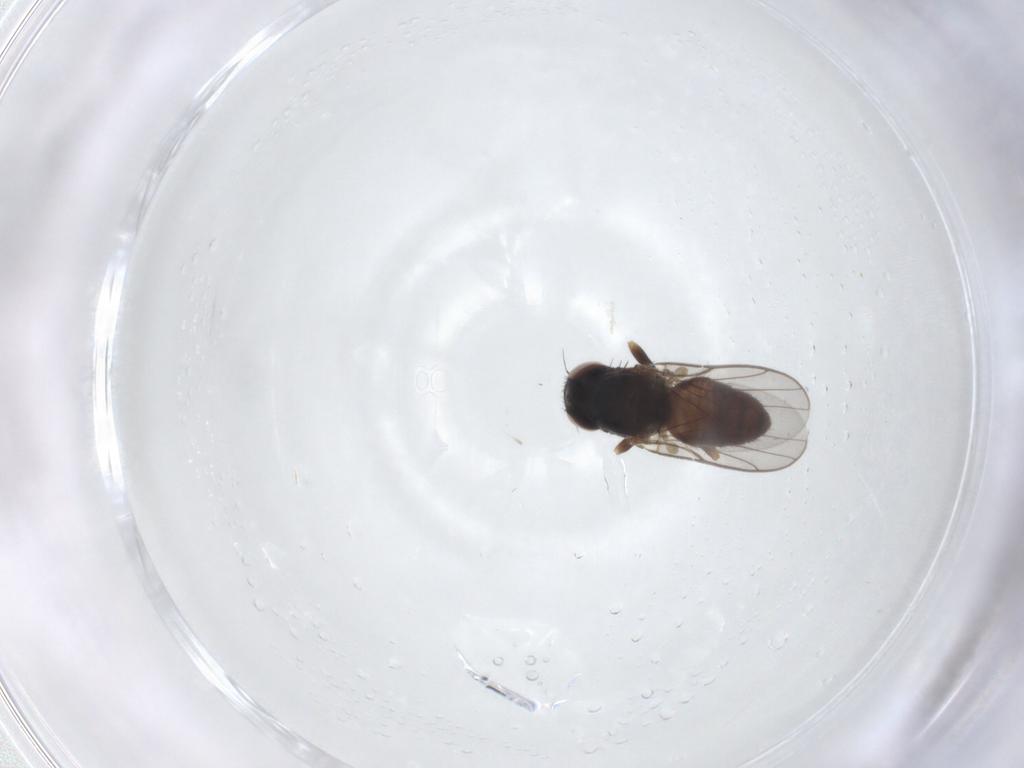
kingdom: Animalia
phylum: Arthropoda
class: Insecta
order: Diptera
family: Chloropidae
